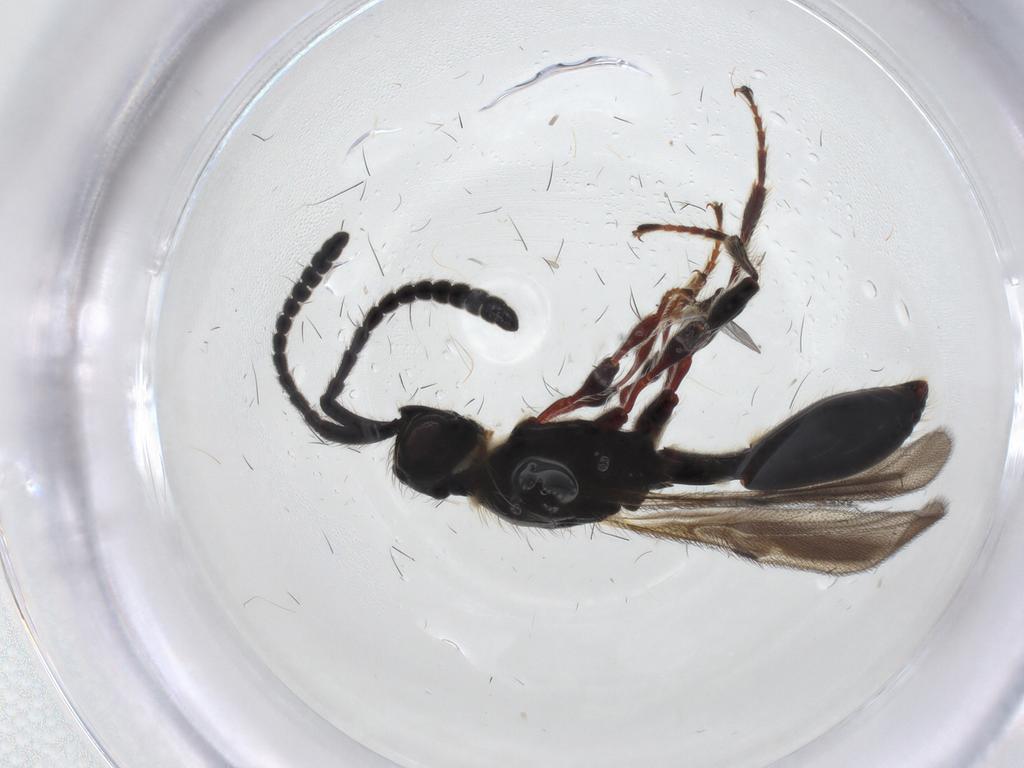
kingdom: Animalia
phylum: Arthropoda
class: Insecta
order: Hymenoptera
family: Diapriidae
